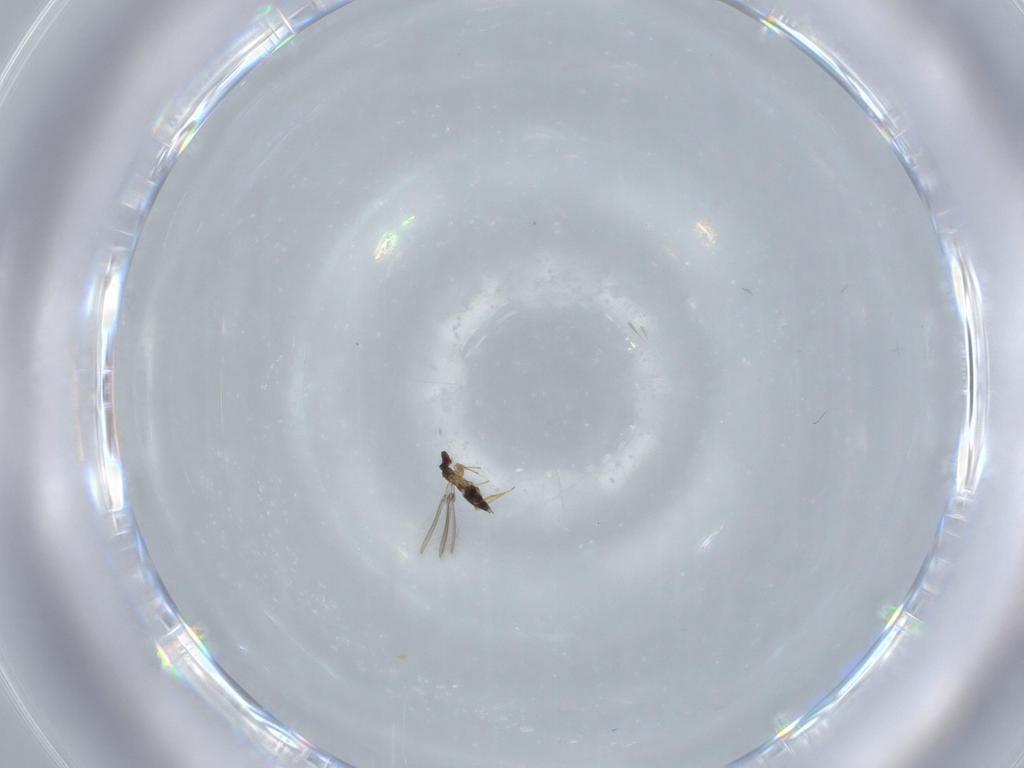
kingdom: Animalia
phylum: Arthropoda
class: Insecta
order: Hymenoptera
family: Mymaridae
